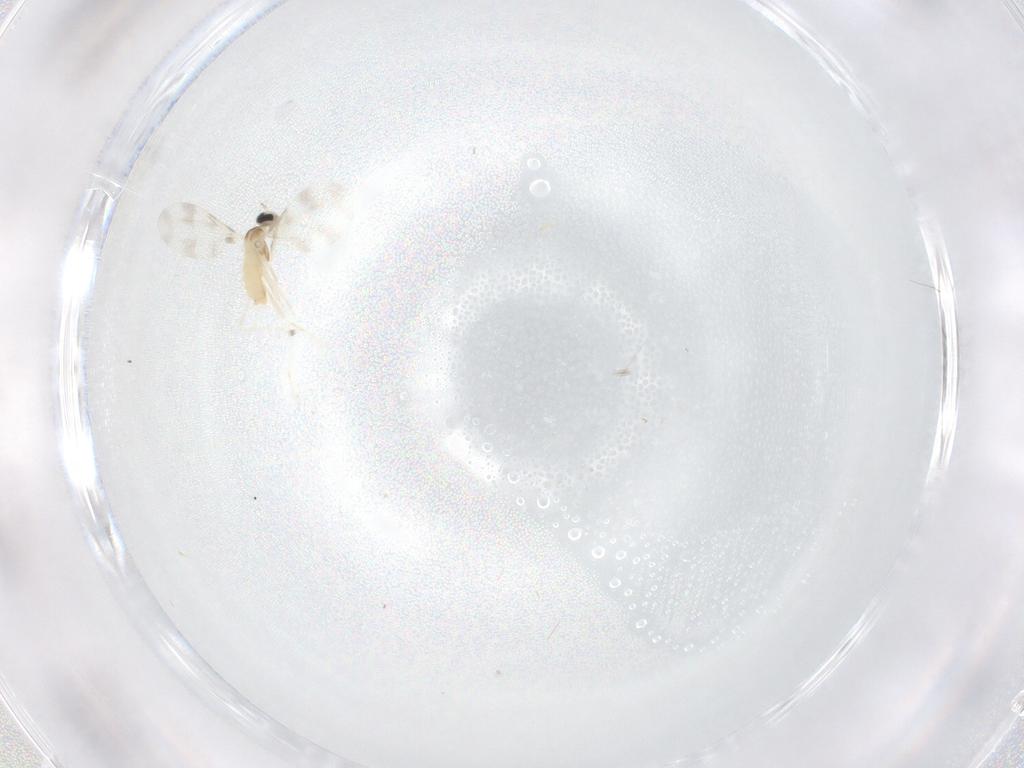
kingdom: Animalia
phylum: Arthropoda
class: Insecta
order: Diptera
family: Cecidomyiidae
